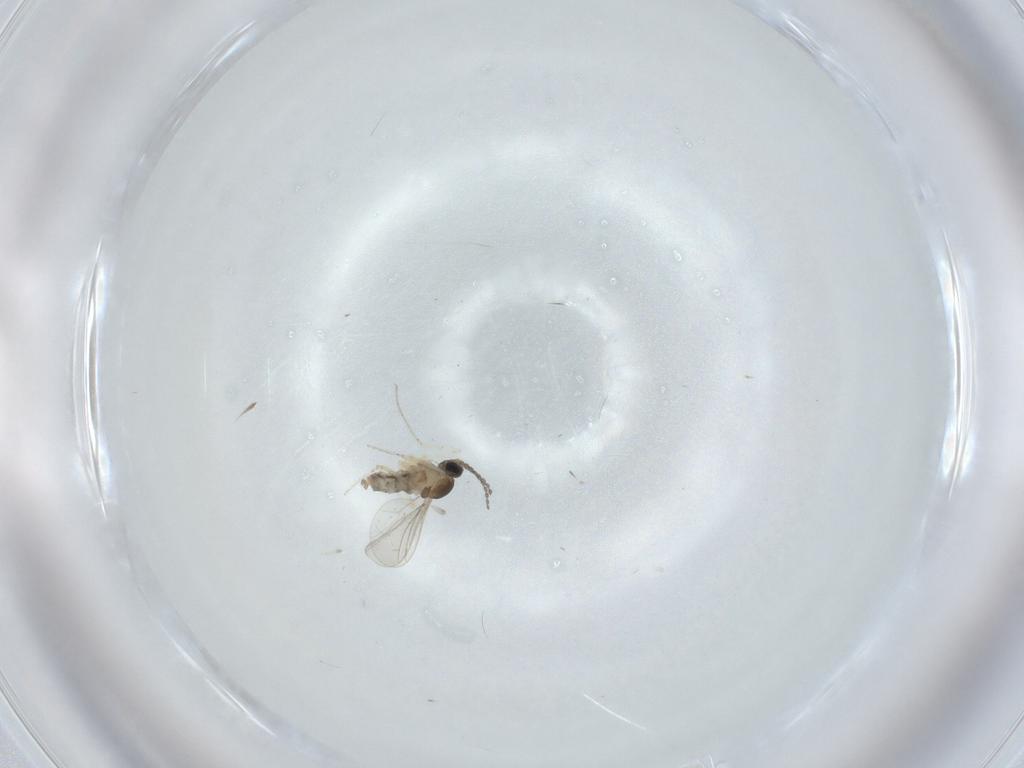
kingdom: Animalia
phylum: Arthropoda
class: Insecta
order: Diptera
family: Cecidomyiidae
